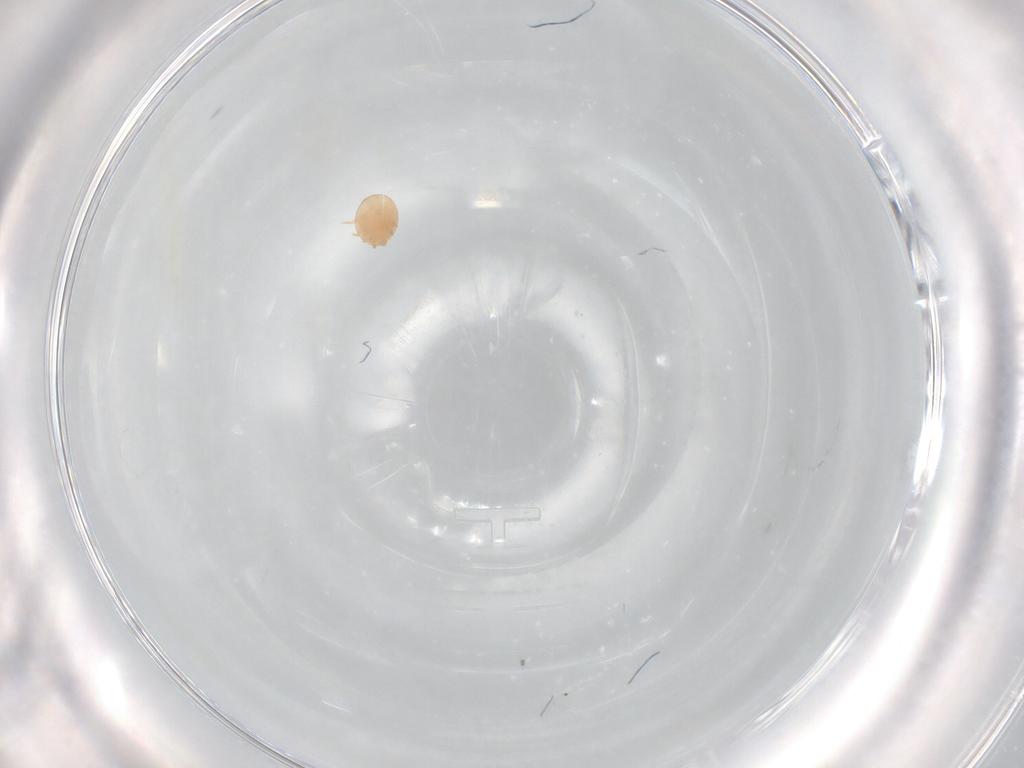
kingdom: Animalia
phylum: Arthropoda
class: Arachnida
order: Mesostigmata
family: Trematuridae
